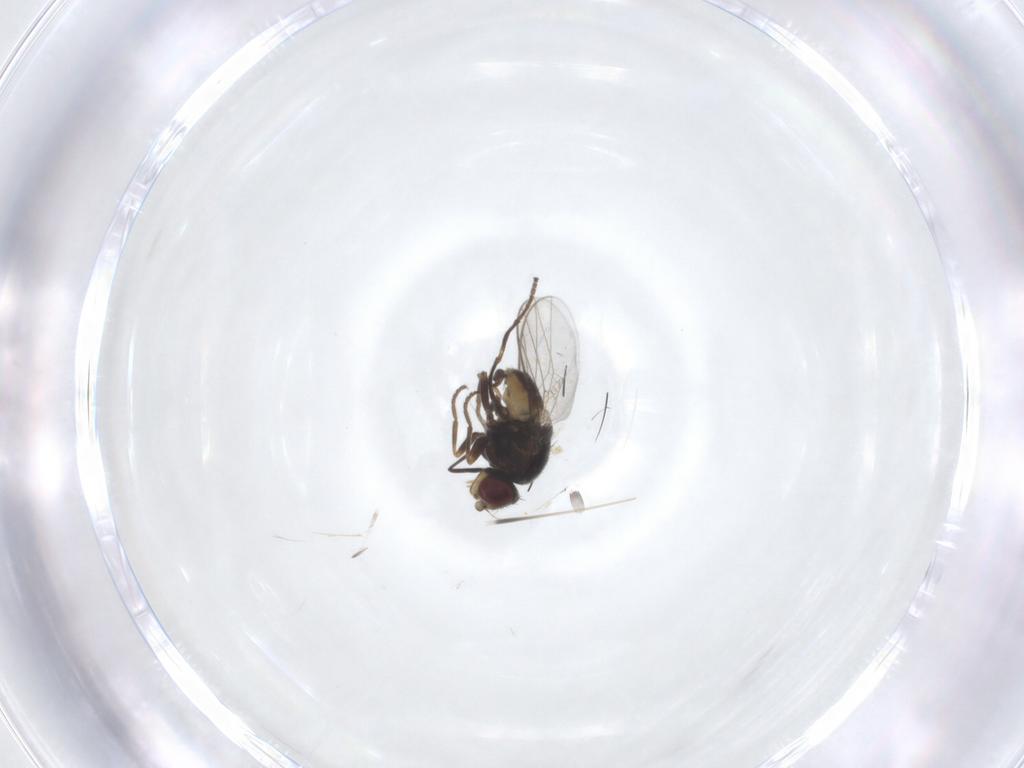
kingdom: Animalia
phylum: Arthropoda
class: Insecta
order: Diptera
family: Chloropidae
